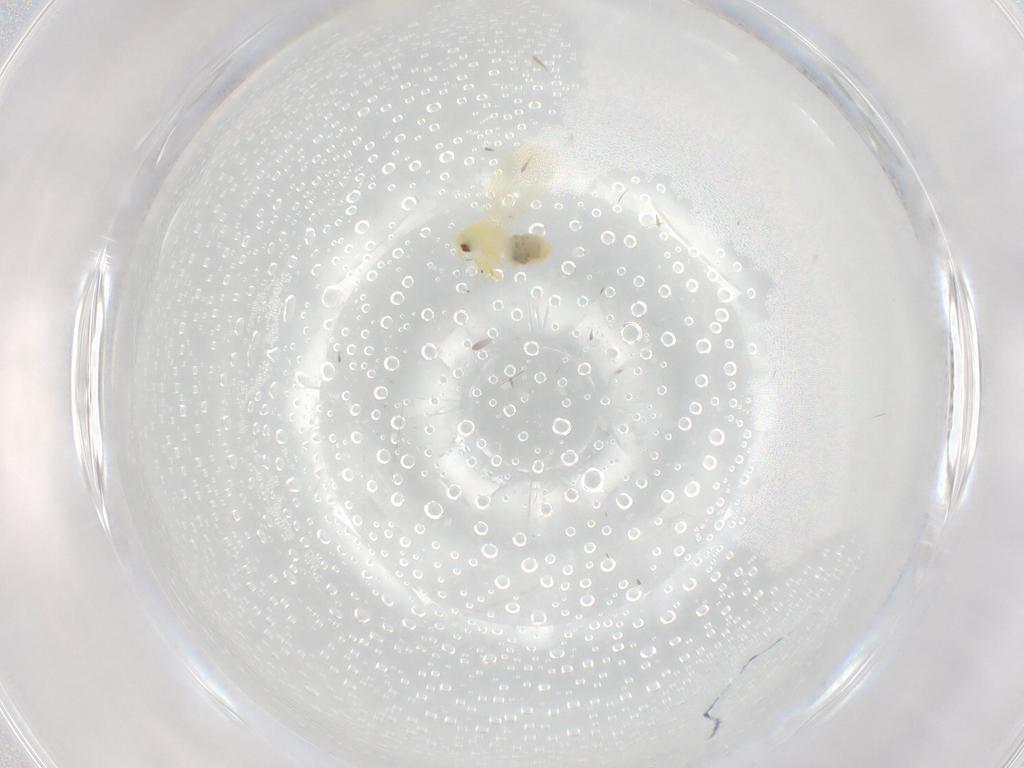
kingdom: Animalia
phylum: Arthropoda
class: Insecta
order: Hemiptera
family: Aleyrodidae
